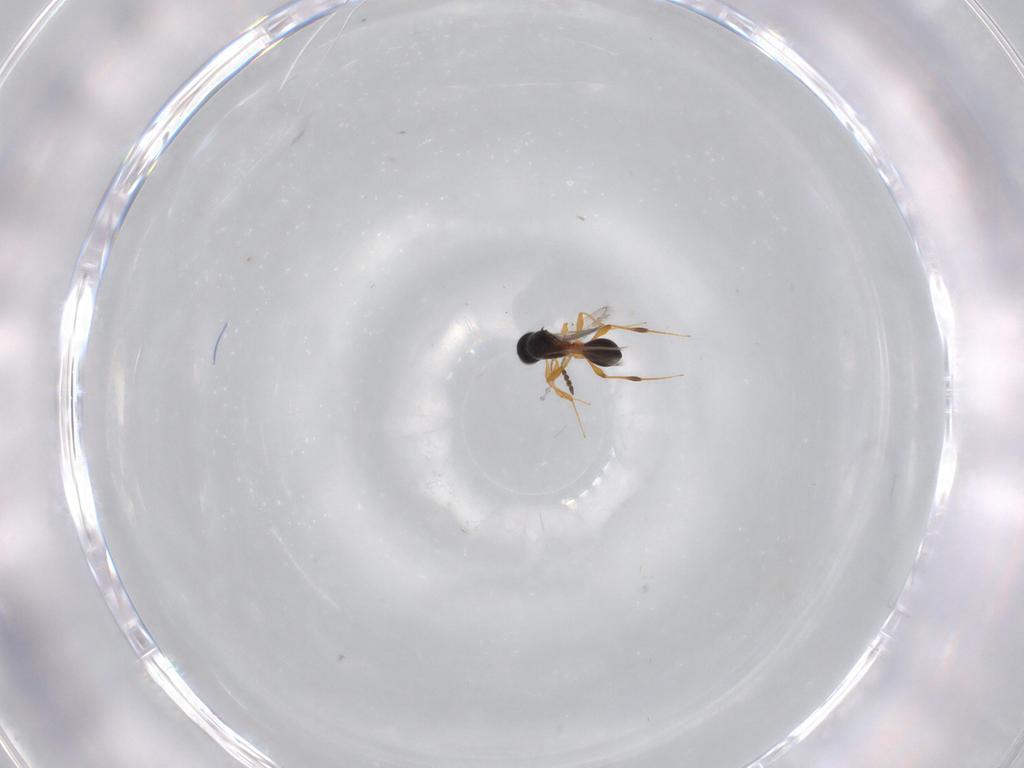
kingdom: Animalia
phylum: Arthropoda
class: Insecta
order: Hymenoptera
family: Platygastridae
